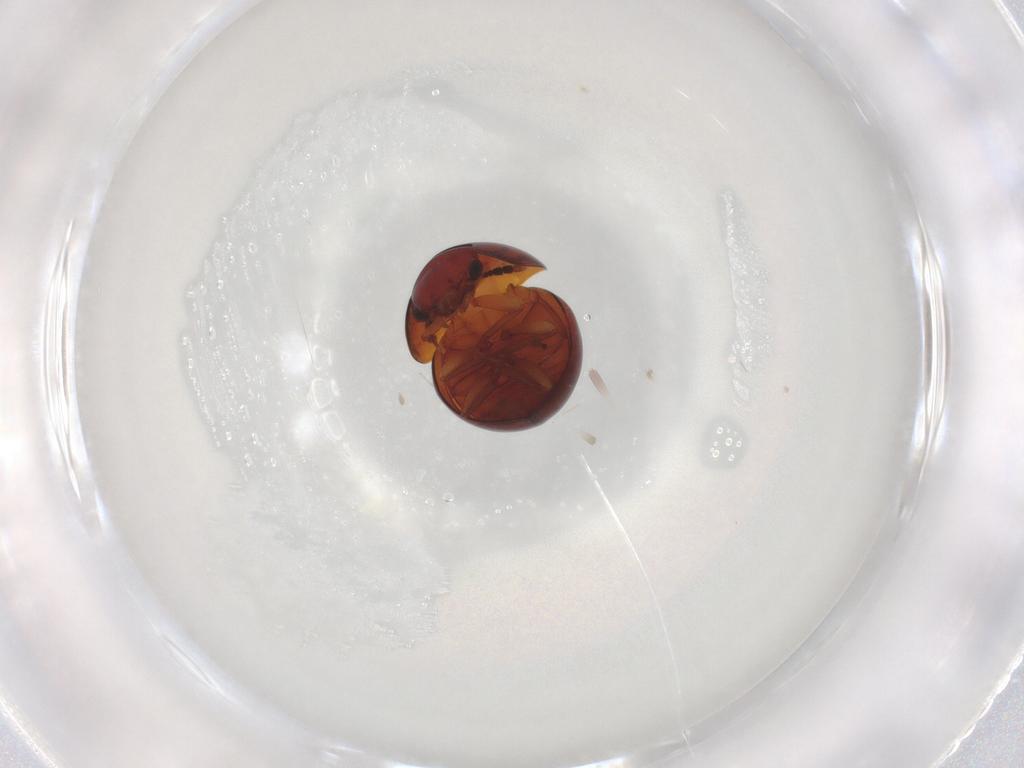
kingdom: Animalia
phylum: Arthropoda
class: Insecta
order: Coleoptera
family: Chrysomelidae
